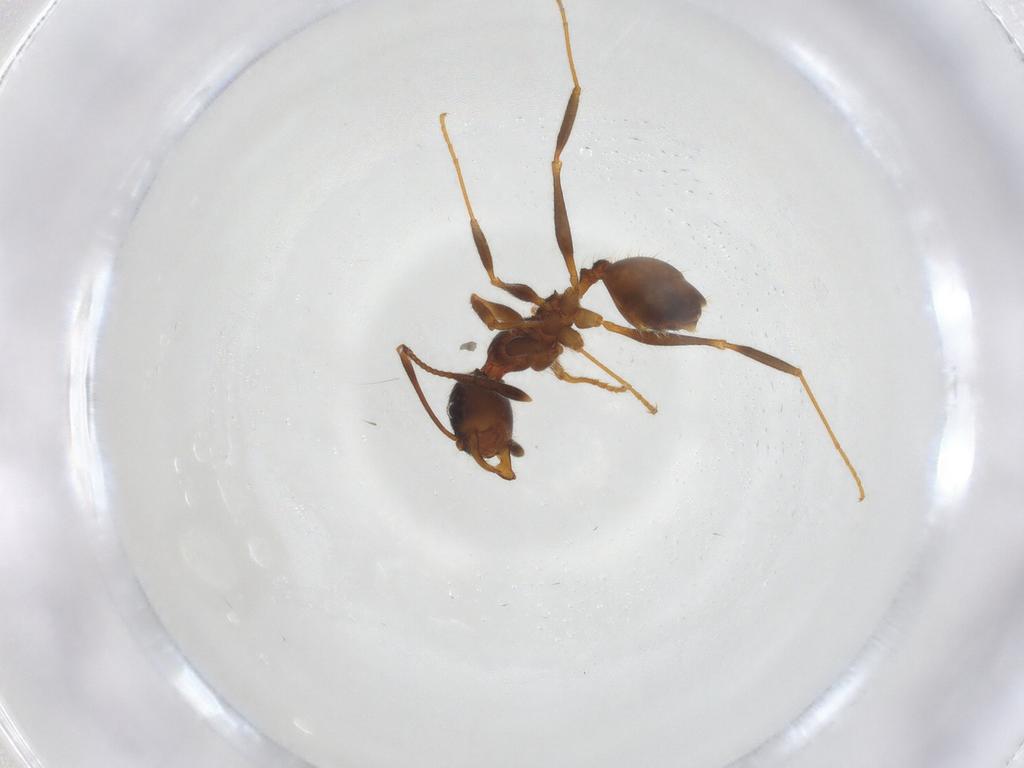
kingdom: Animalia
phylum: Arthropoda
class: Insecta
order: Hymenoptera
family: Formicidae
